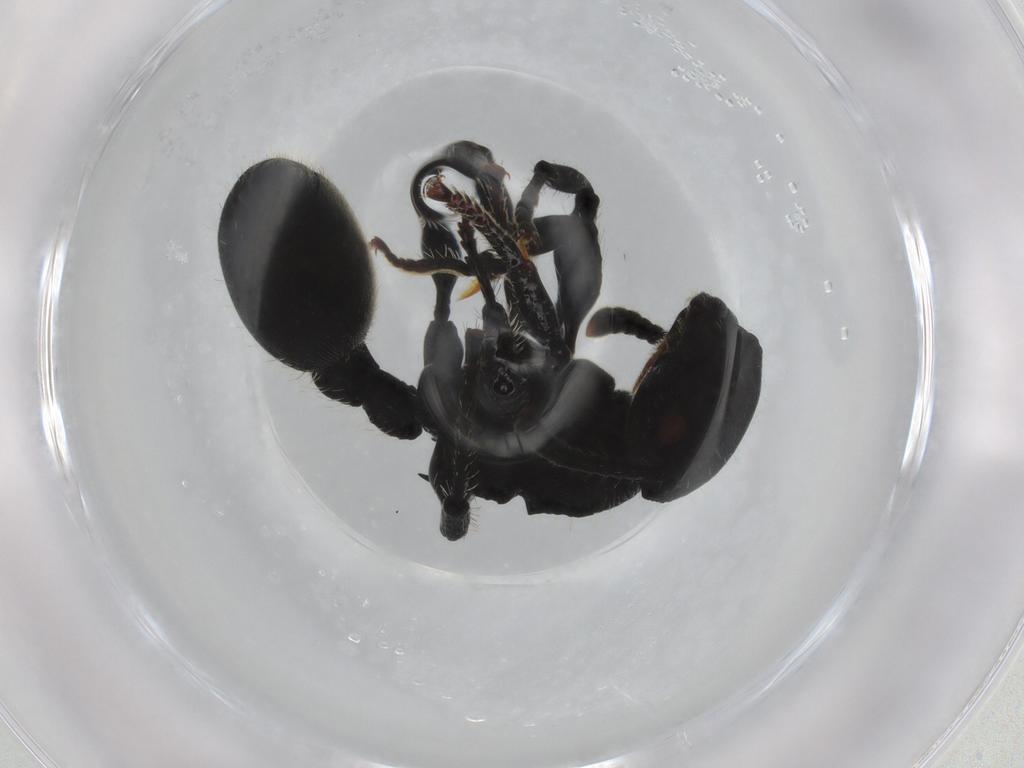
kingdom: Animalia
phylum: Arthropoda
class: Insecta
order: Hymenoptera
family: Formicidae
